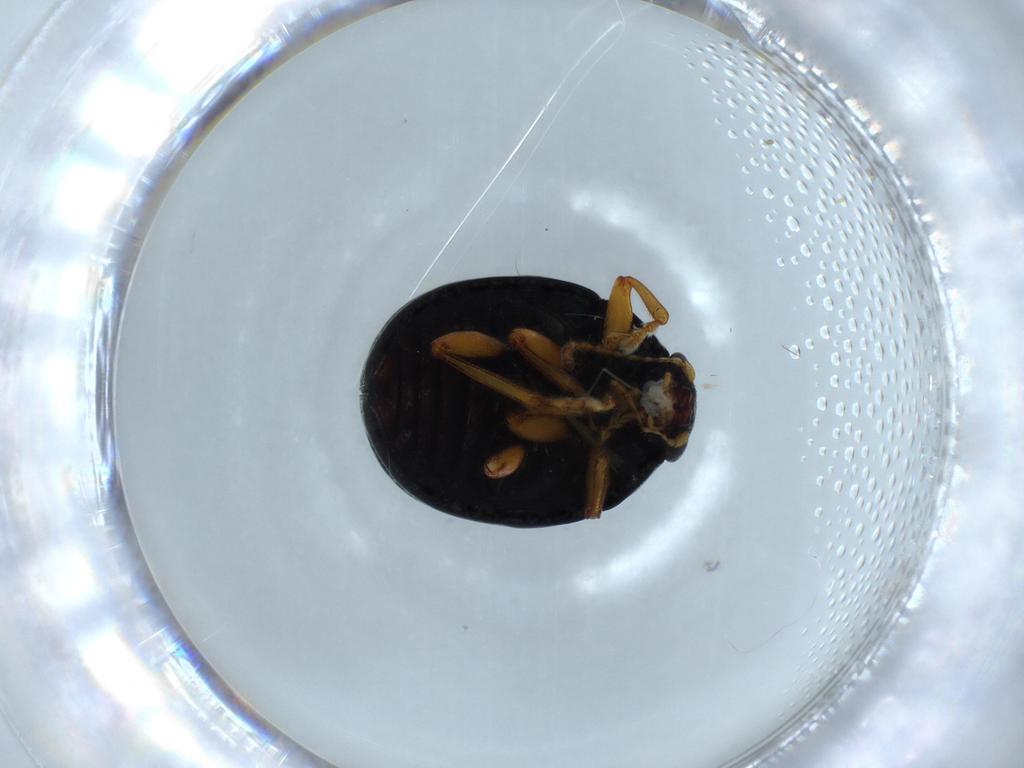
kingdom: Animalia
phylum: Arthropoda
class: Insecta
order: Coleoptera
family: Chrysomelidae
